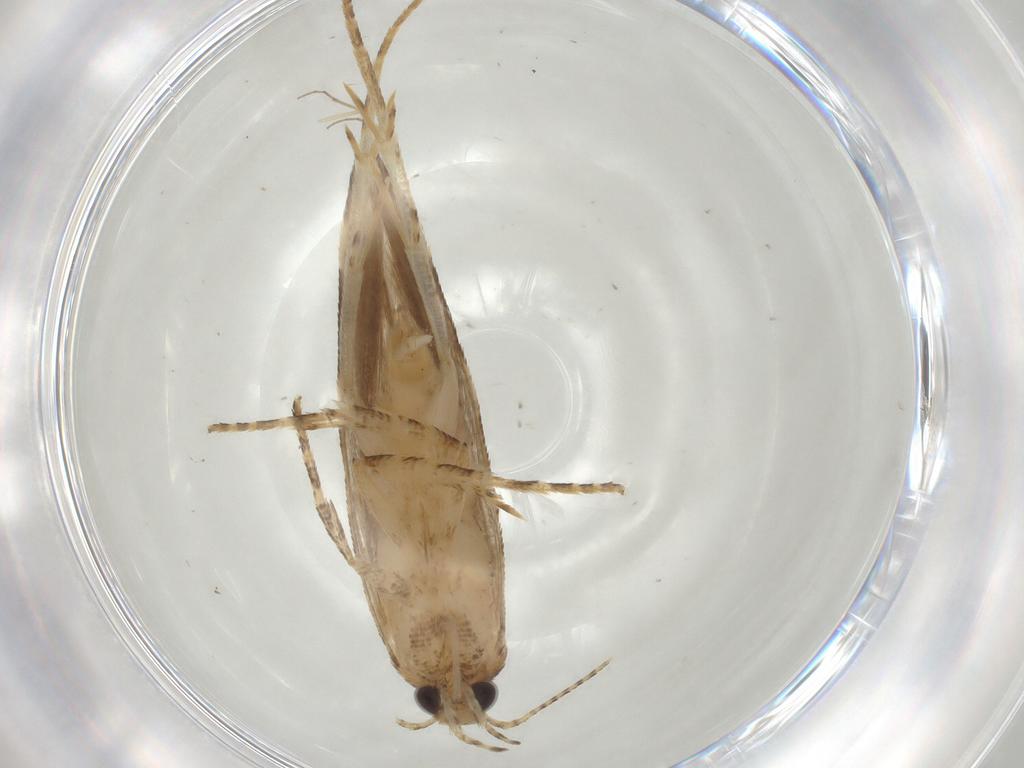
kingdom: Animalia
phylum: Arthropoda
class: Insecta
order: Lepidoptera
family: Gelechiidae
